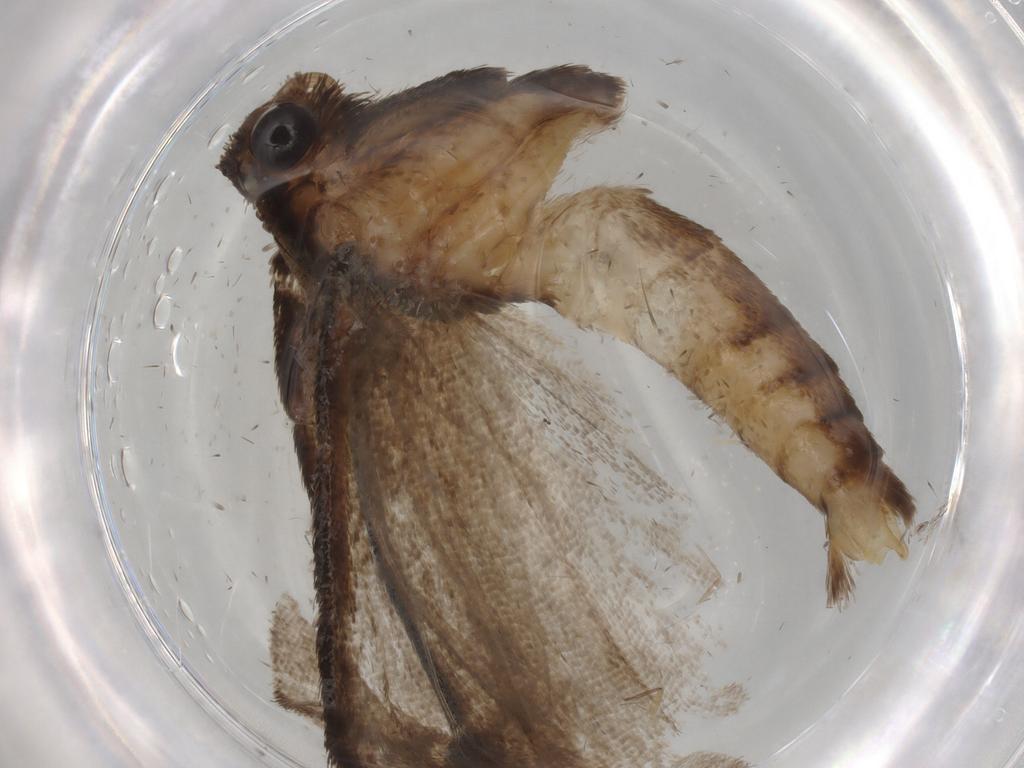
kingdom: Animalia
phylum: Arthropoda
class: Insecta
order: Lepidoptera
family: Erebidae
